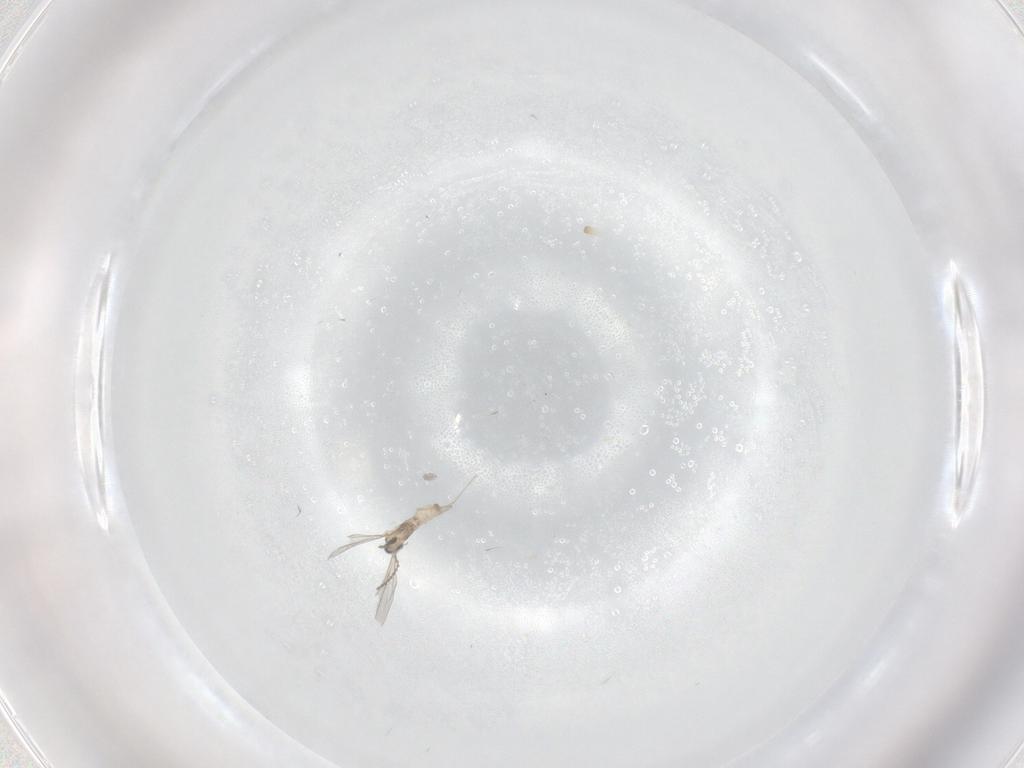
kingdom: Animalia
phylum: Arthropoda
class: Insecta
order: Diptera
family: Cecidomyiidae
